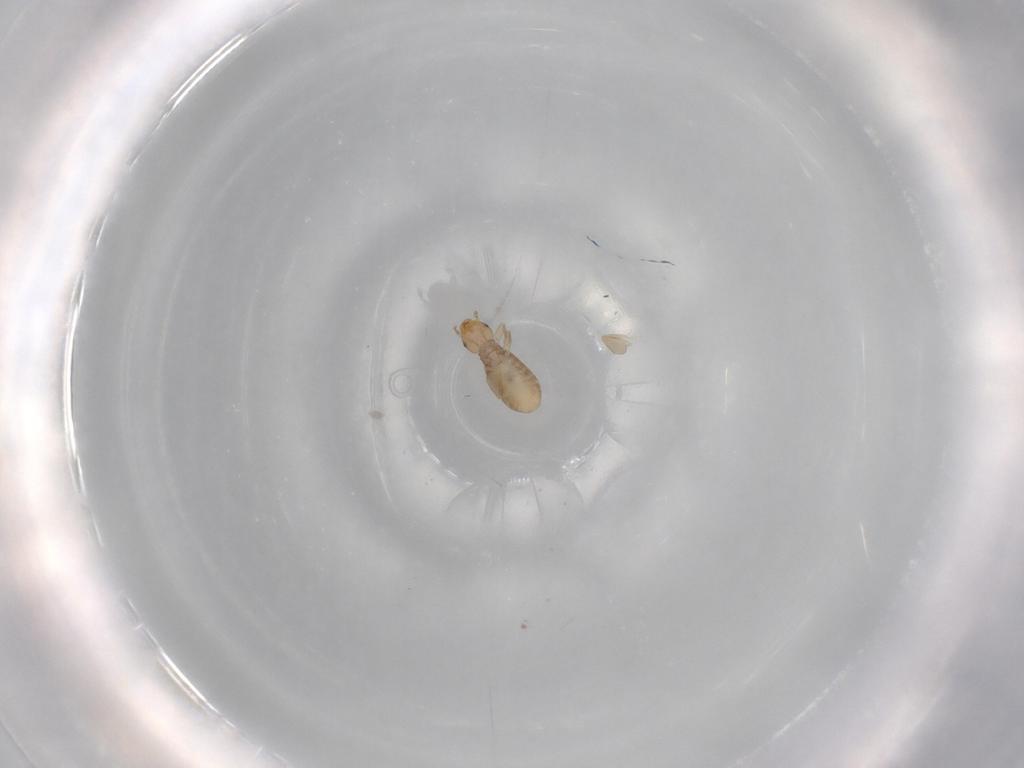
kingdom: Animalia
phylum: Arthropoda
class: Insecta
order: Psocodea
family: Liposcelididae
